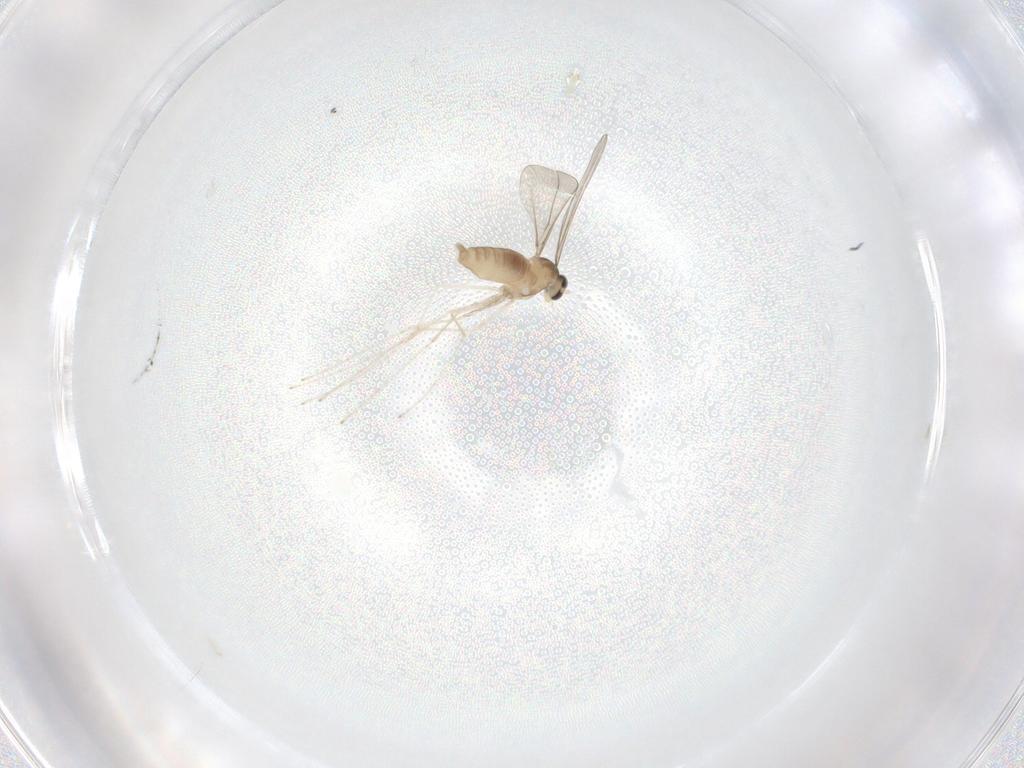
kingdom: Animalia
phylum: Arthropoda
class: Insecta
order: Diptera
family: Cecidomyiidae
